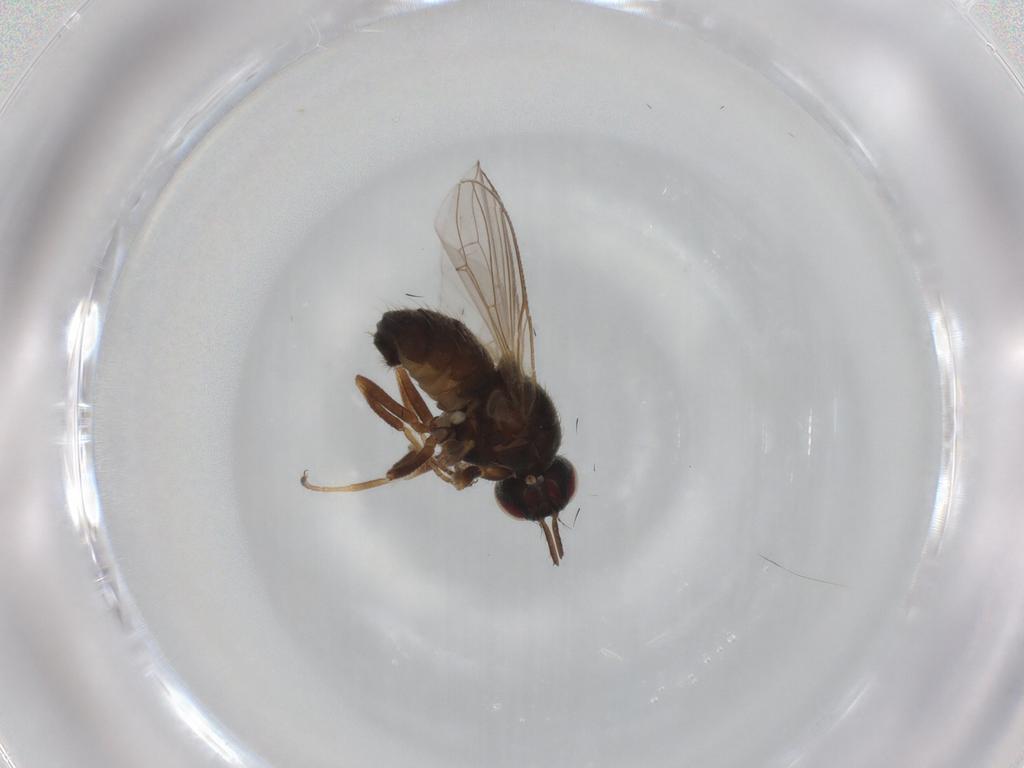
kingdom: Animalia
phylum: Arthropoda
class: Insecta
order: Diptera
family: Muscidae
